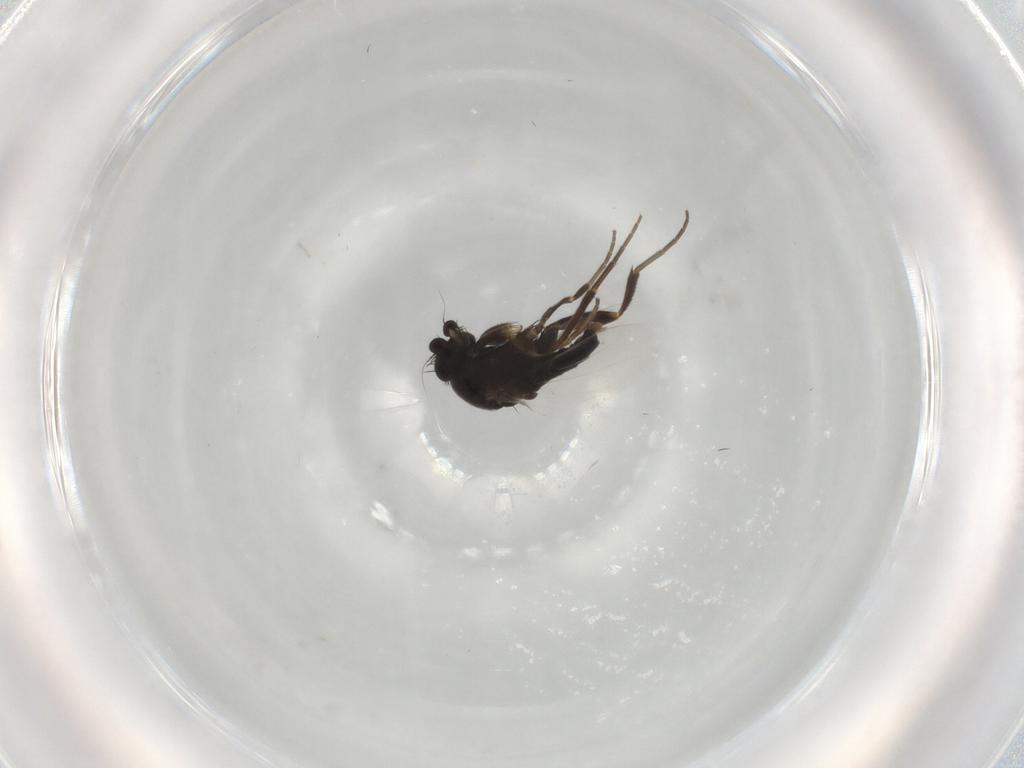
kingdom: Animalia
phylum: Arthropoda
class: Insecta
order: Diptera
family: Phoridae
